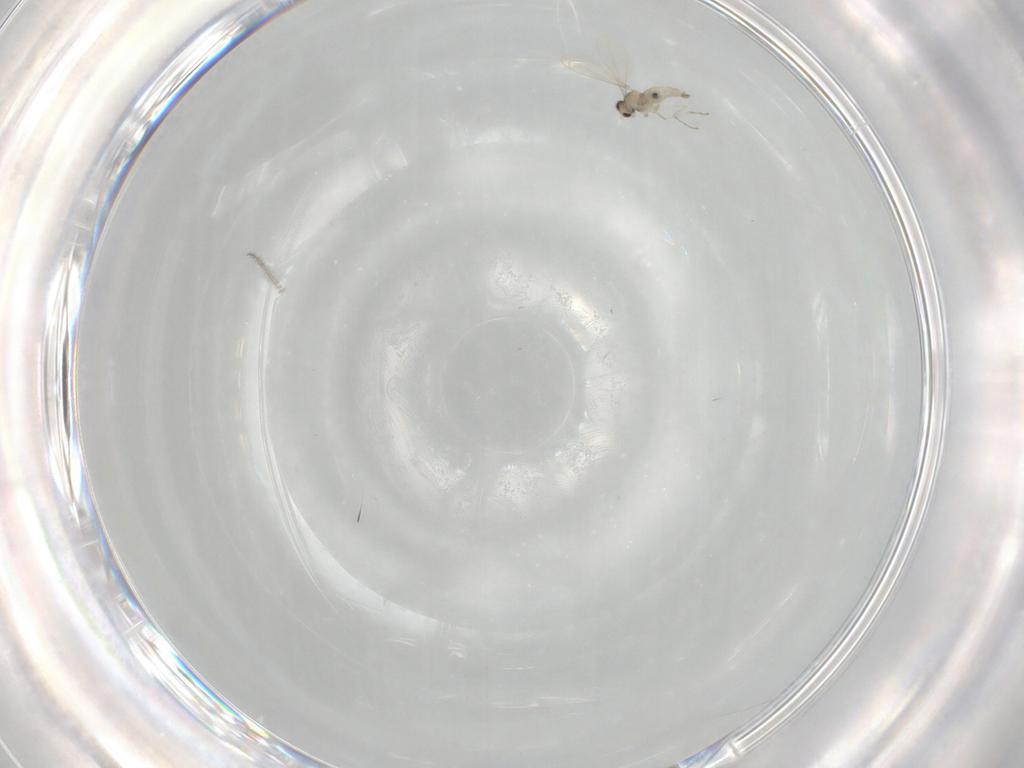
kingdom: Animalia
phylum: Arthropoda
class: Insecta
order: Diptera
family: Cecidomyiidae
